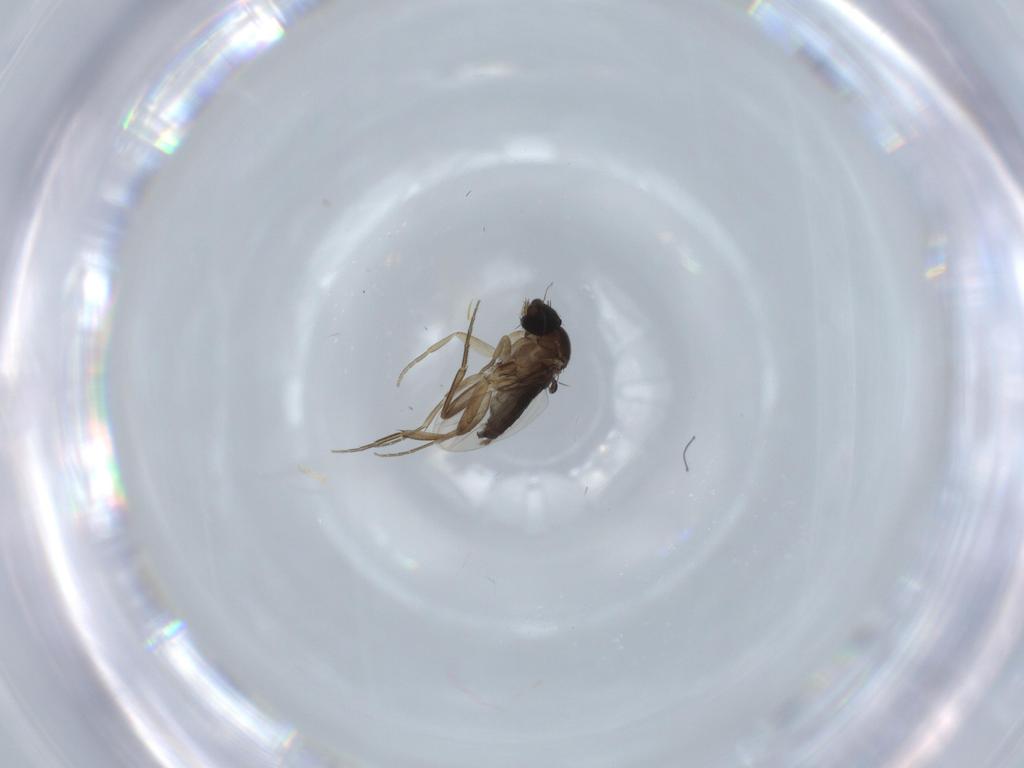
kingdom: Animalia
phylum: Arthropoda
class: Insecta
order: Diptera
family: Phoridae
